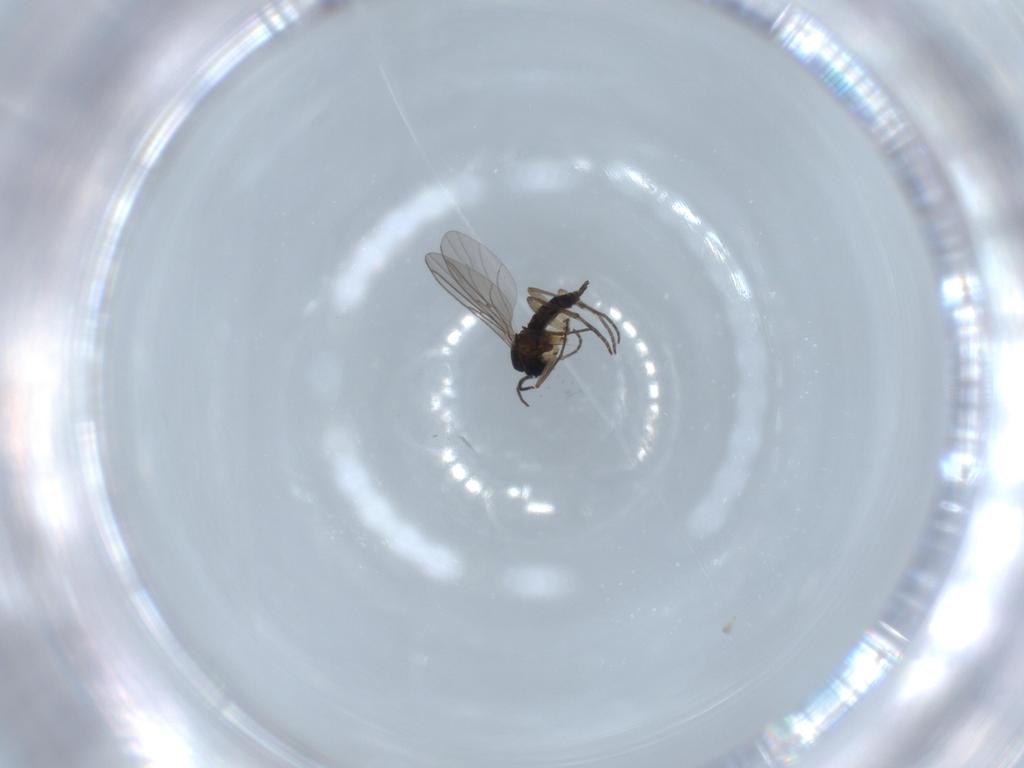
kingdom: Animalia
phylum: Arthropoda
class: Insecta
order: Diptera
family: Sciaridae
